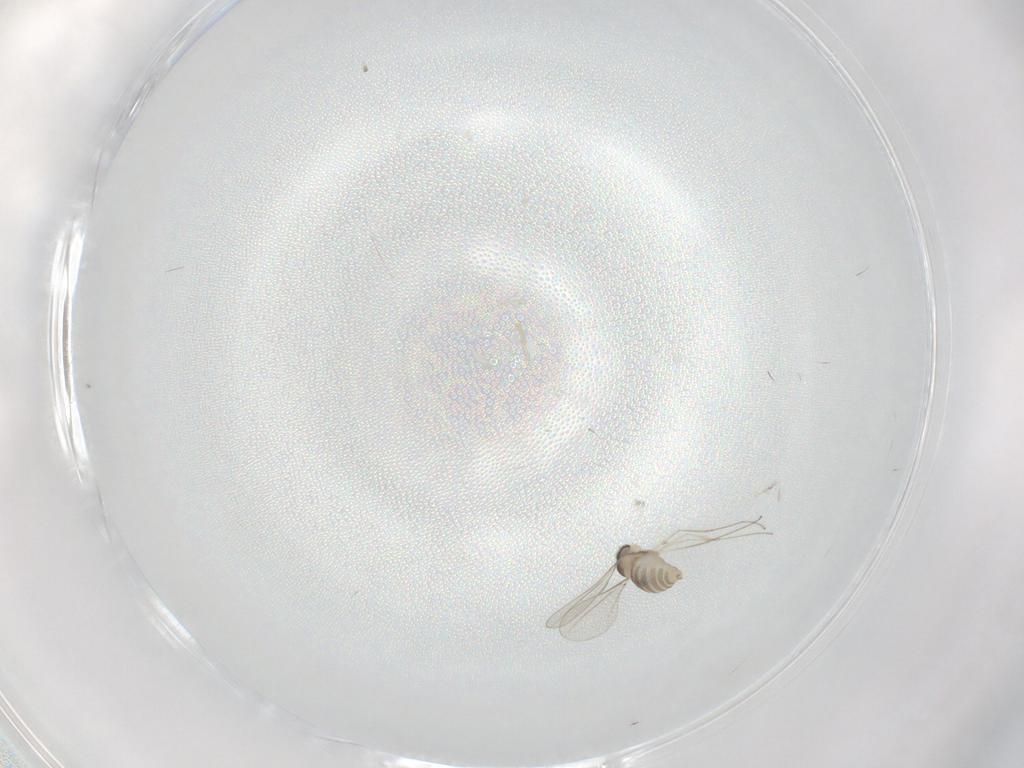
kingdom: Animalia
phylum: Arthropoda
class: Insecta
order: Diptera
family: Cecidomyiidae
